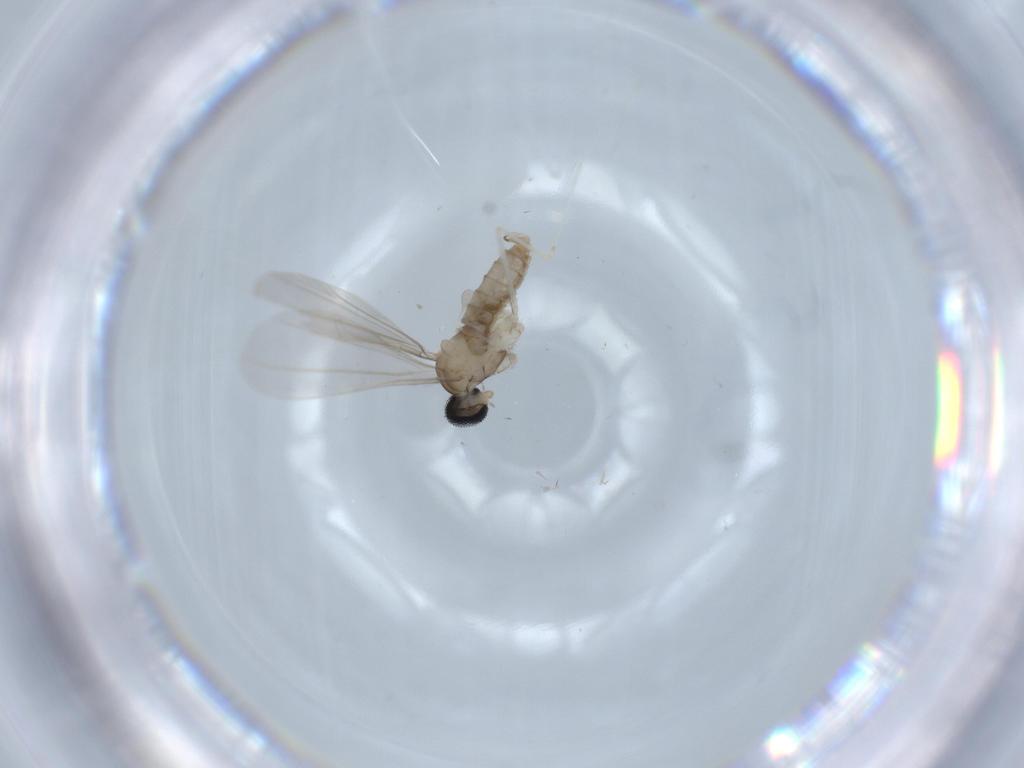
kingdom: Animalia
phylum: Arthropoda
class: Insecta
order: Diptera
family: Cecidomyiidae
